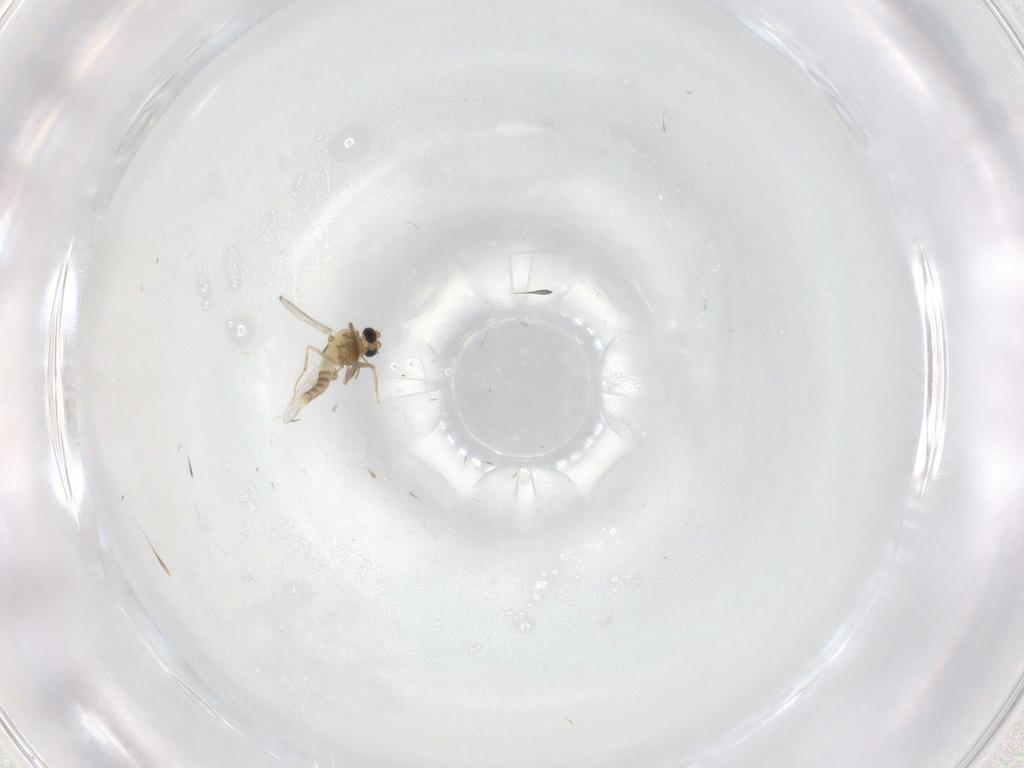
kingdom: Animalia
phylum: Arthropoda
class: Insecta
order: Diptera
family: Chironomidae
